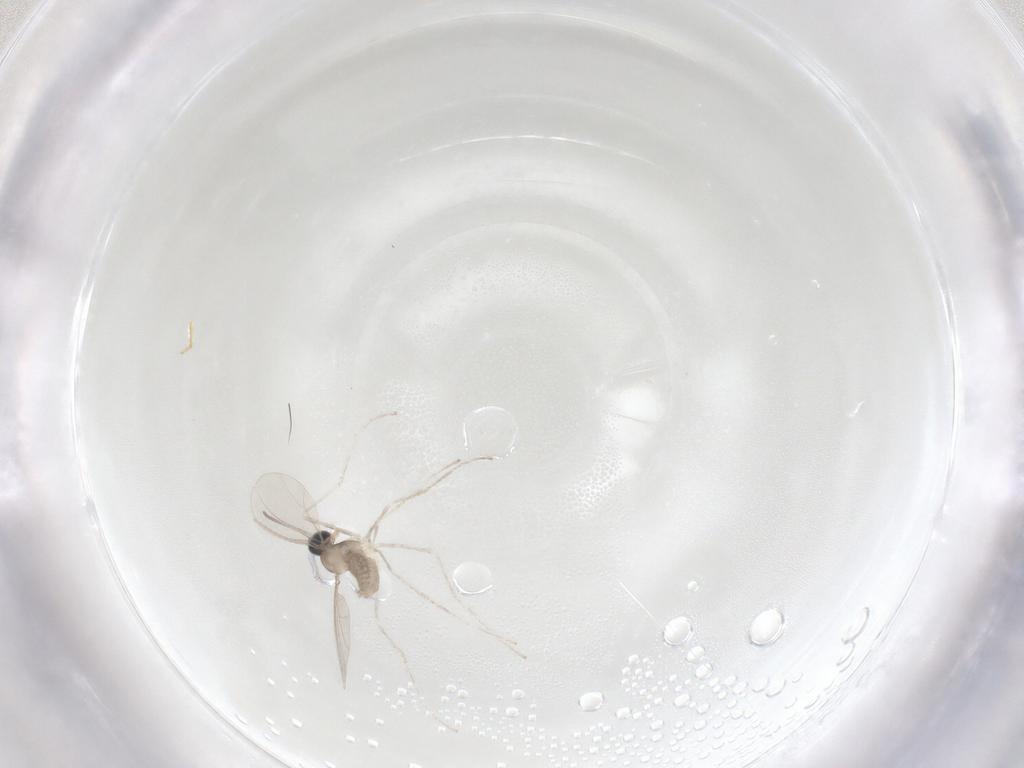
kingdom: Animalia
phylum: Arthropoda
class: Insecta
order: Diptera
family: Cecidomyiidae
